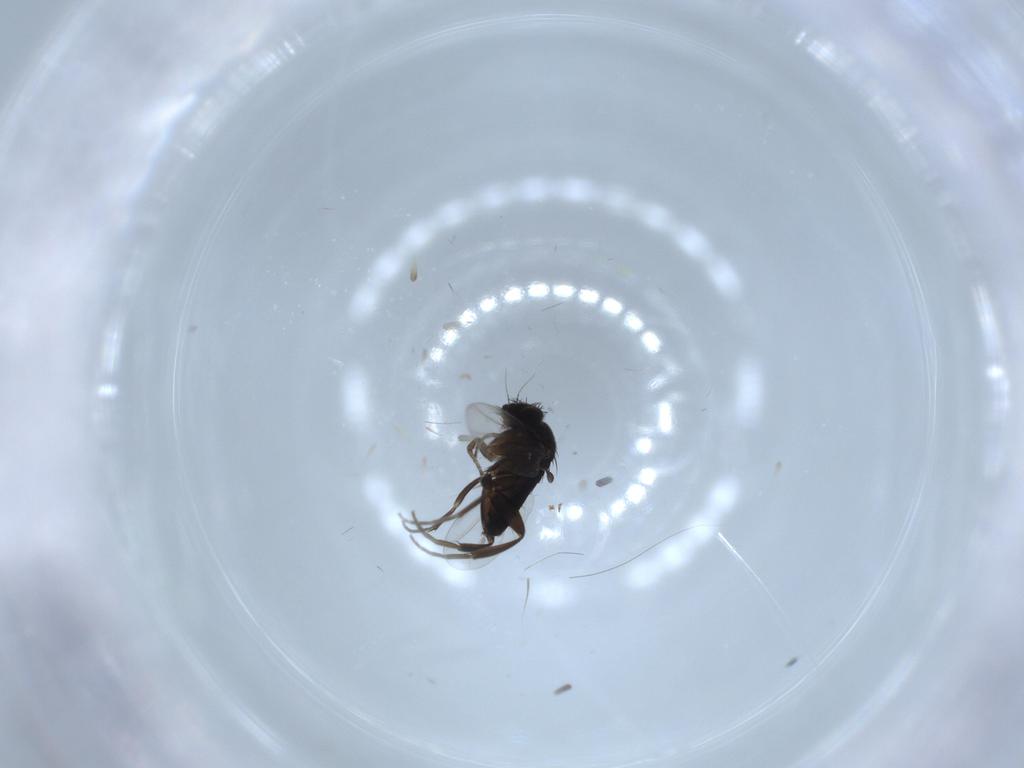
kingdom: Animalia
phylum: Arthropoda
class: Insecta
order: Diptera
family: Phoridae
